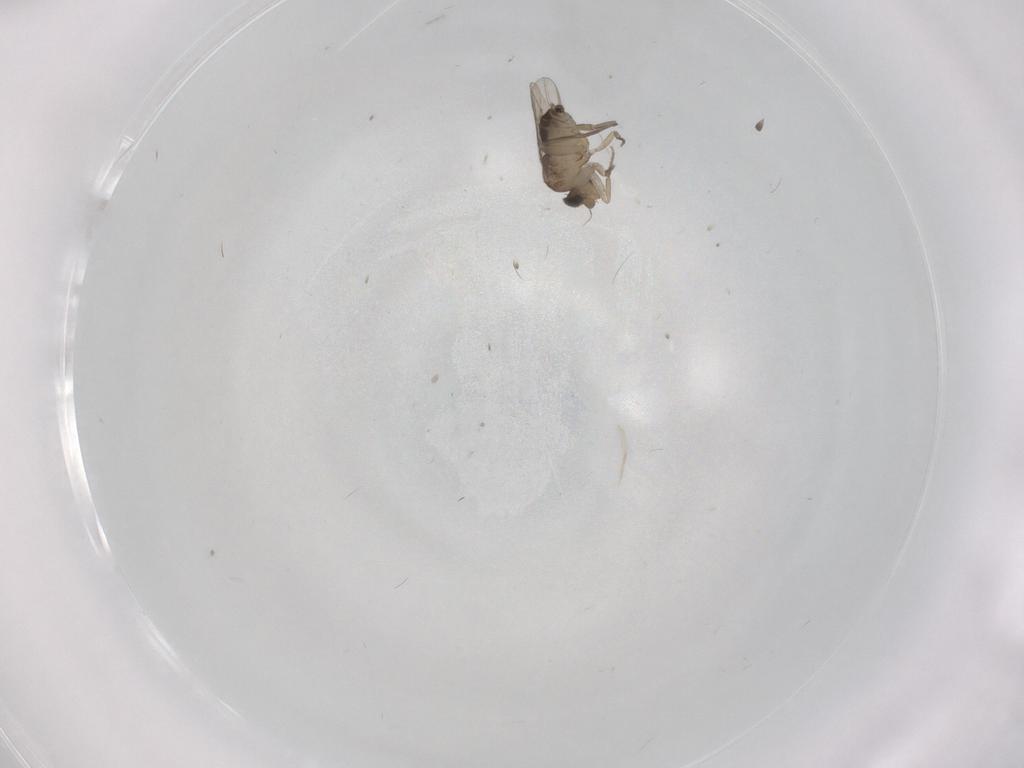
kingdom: Animalia
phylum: Arthropoda
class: Insecta
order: Diptera
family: Phoridae
